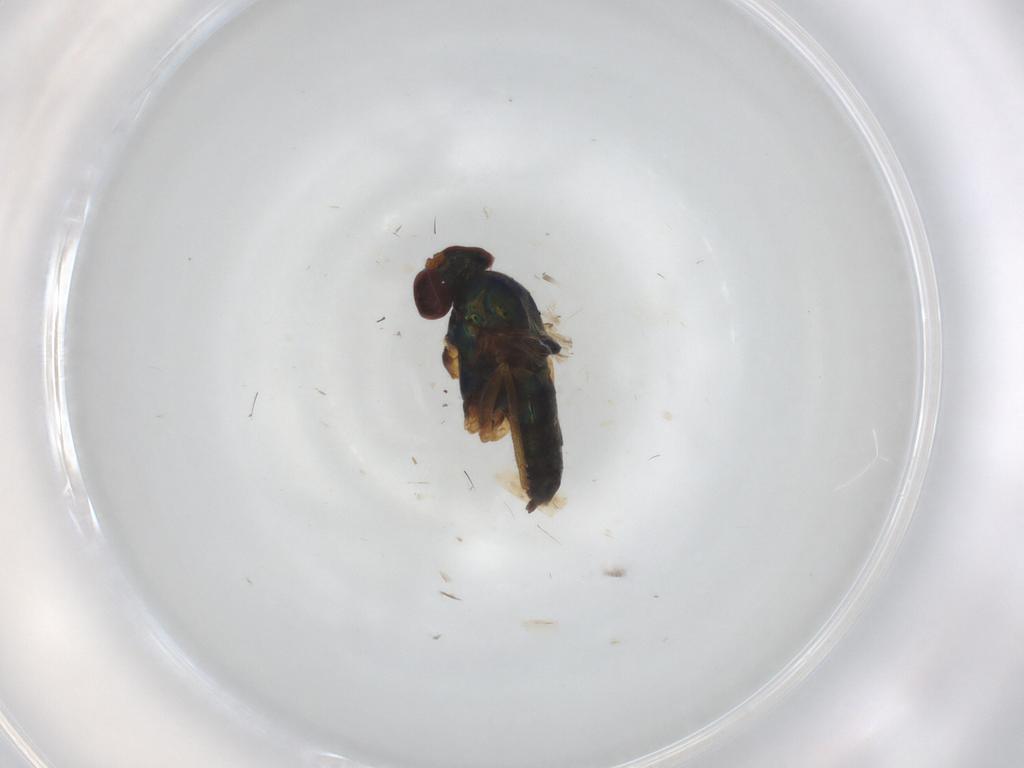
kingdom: Animalia
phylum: Arthropoda
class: Insecta
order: Diptera
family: Dolichopodidae
